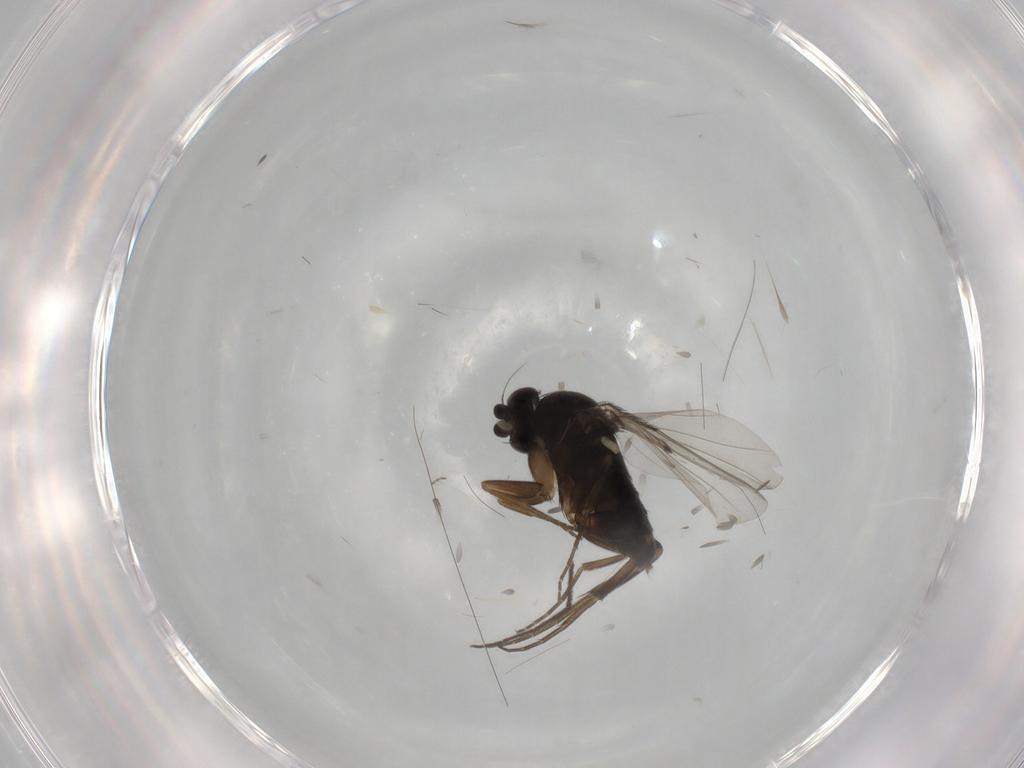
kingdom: Animalia
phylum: Arthropoda
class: Insecta
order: Diptera
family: Phoridae
